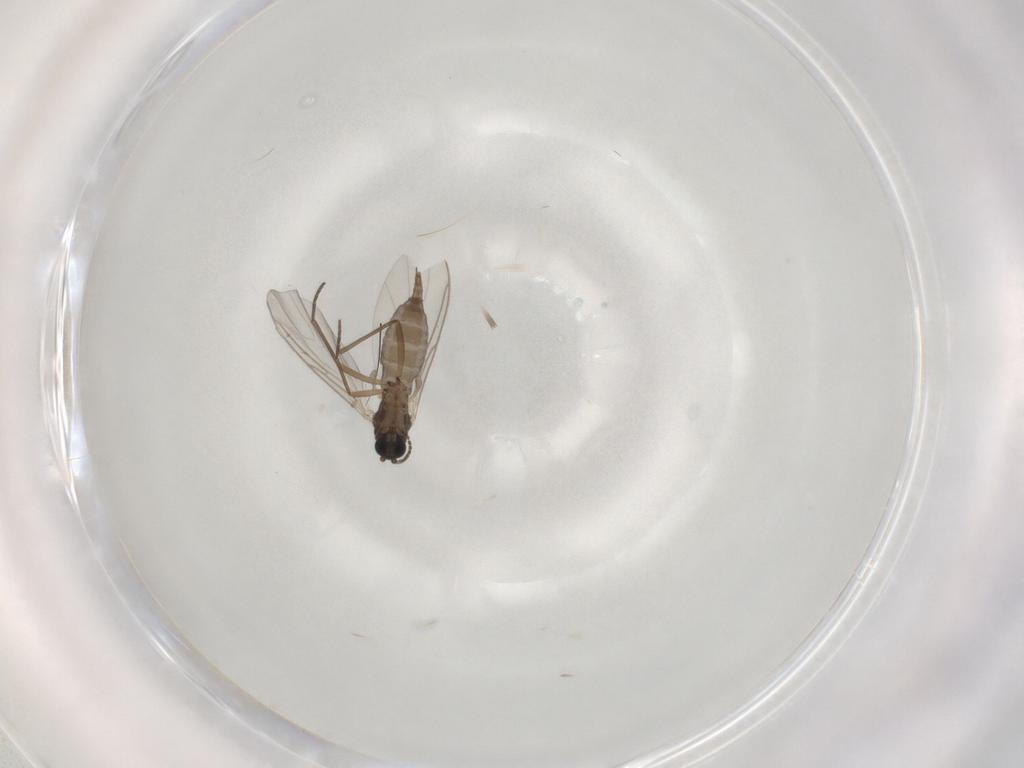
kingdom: Animalia
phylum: Arthropoda
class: Insecta
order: Diptera
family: Sciaridae
